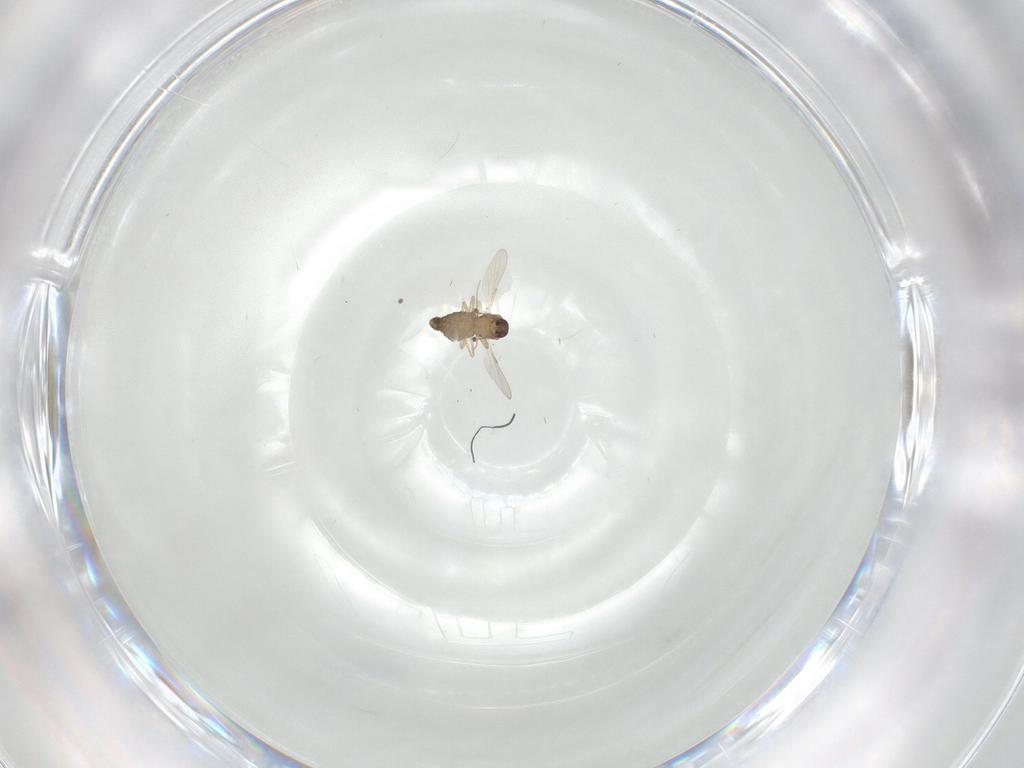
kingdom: Animalia
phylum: Arthropoda
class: Insecta
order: Diptera
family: Ceratopogonidae
